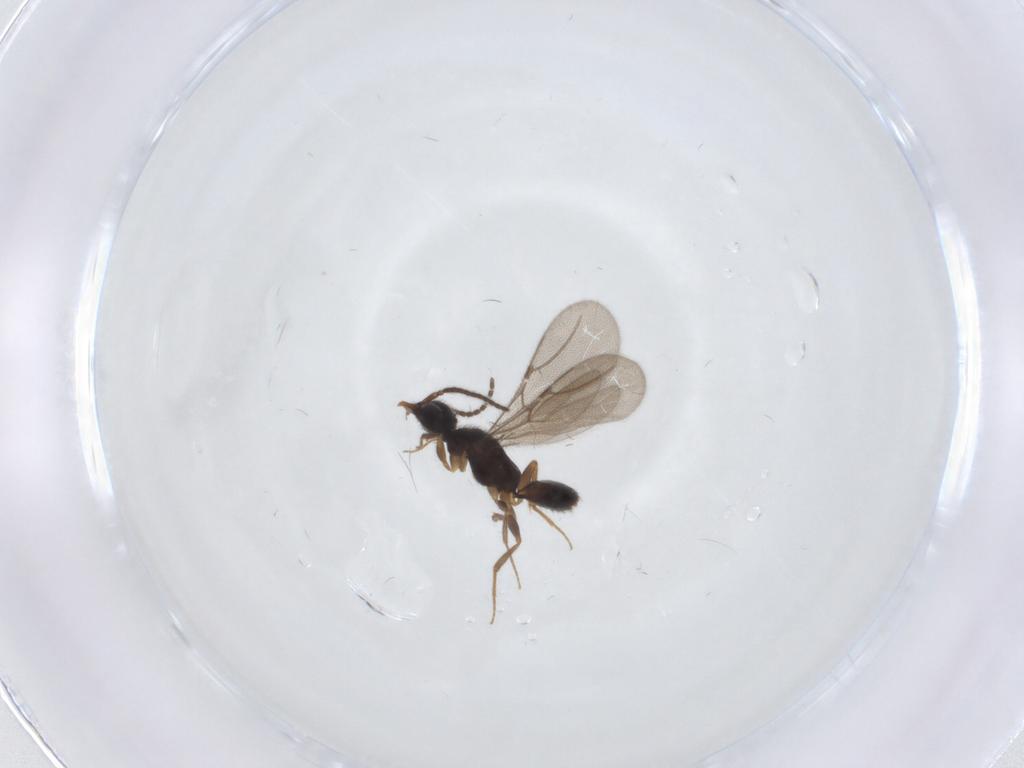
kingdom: Animalia
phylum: Arthropoda
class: Insecta
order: Hymenoptera
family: Bethylidae
